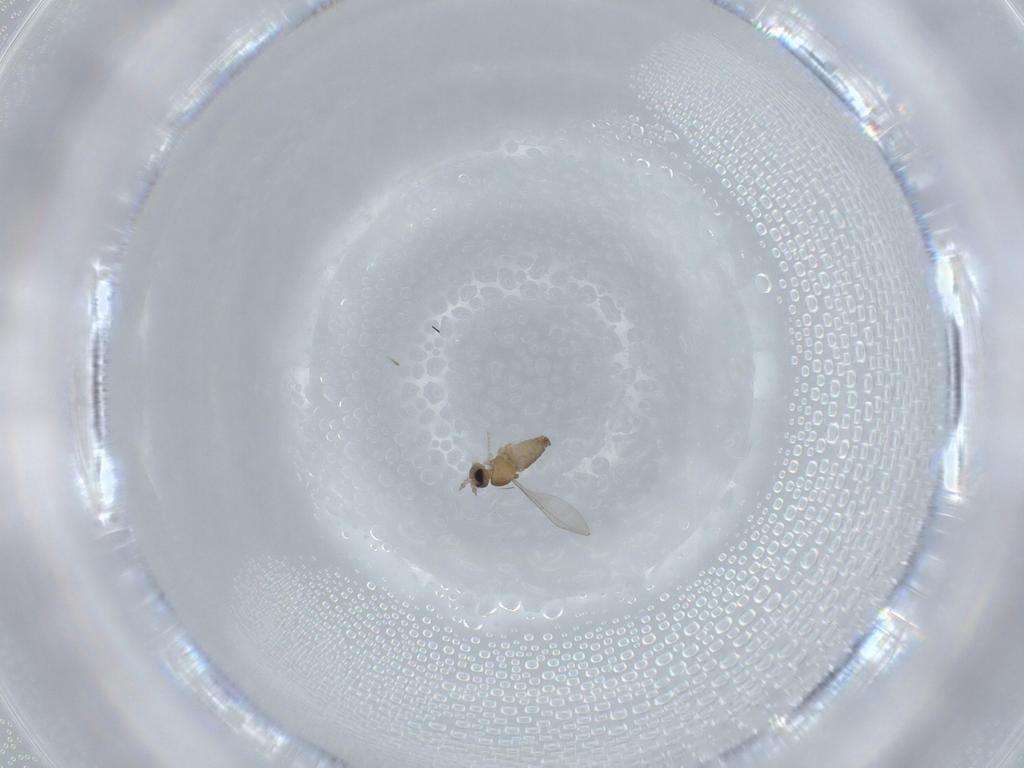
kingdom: Animalia
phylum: Arthropoda
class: Insecta
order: Diptera
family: Cecidomyiidae
